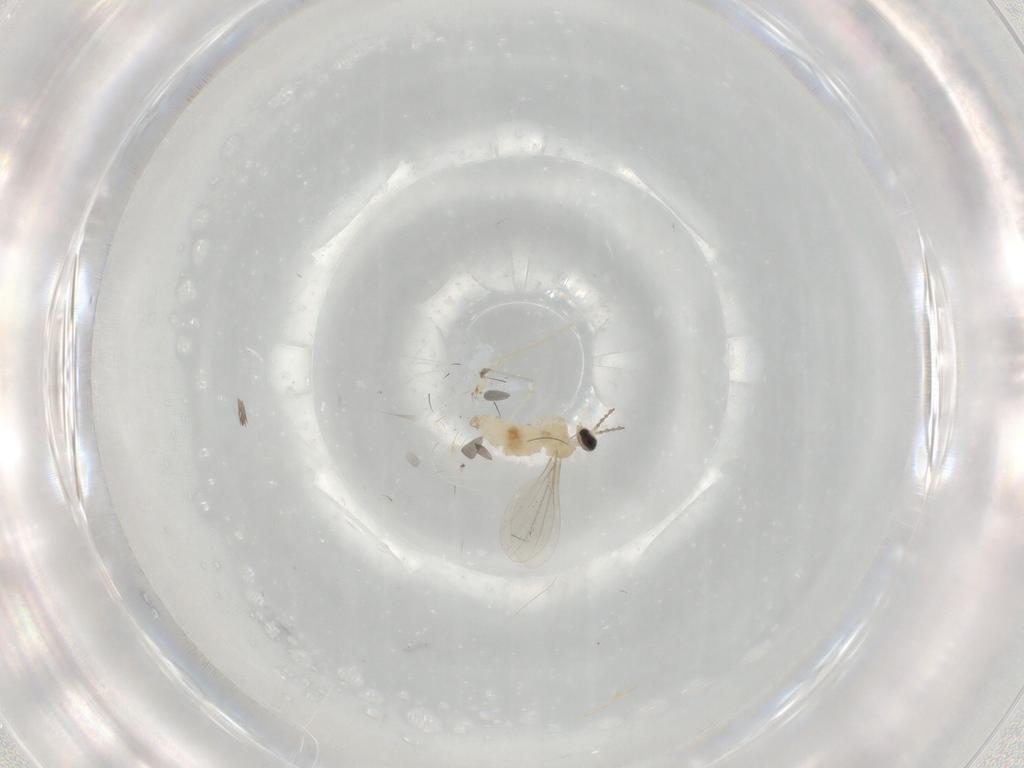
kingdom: Animalia
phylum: Arthropoda
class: Insecta
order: Diptera
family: Cecidomyiidae
